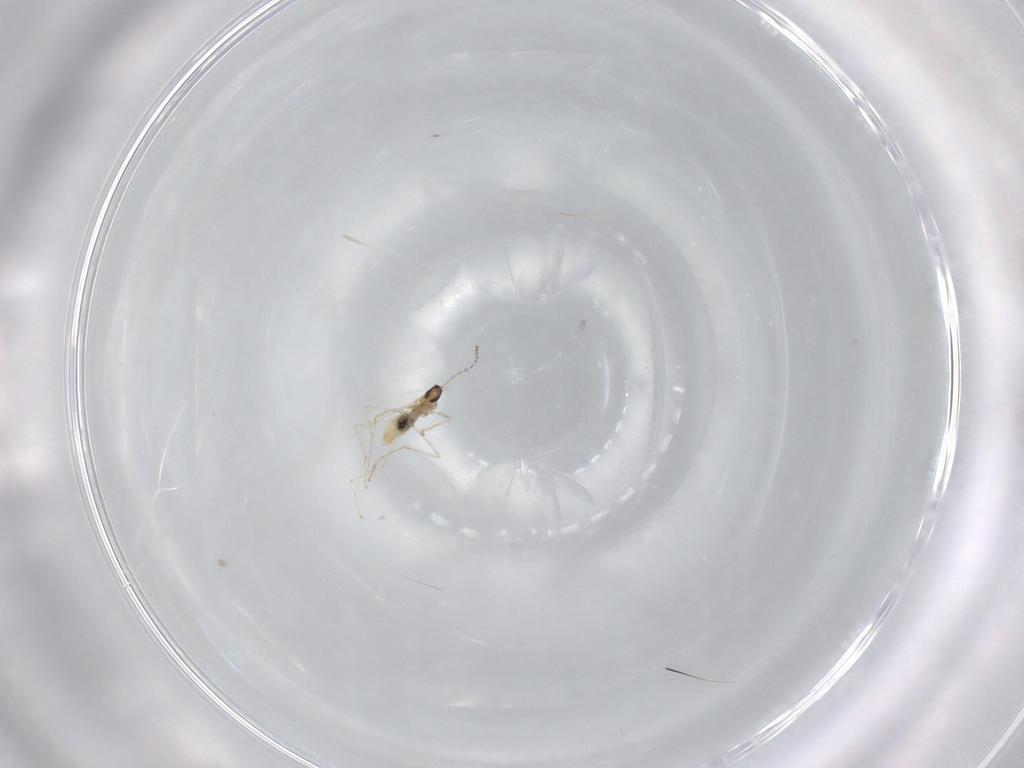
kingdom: Animalia
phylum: Arthropoda
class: Insecta
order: Diptera
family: Cecidomyiidae
